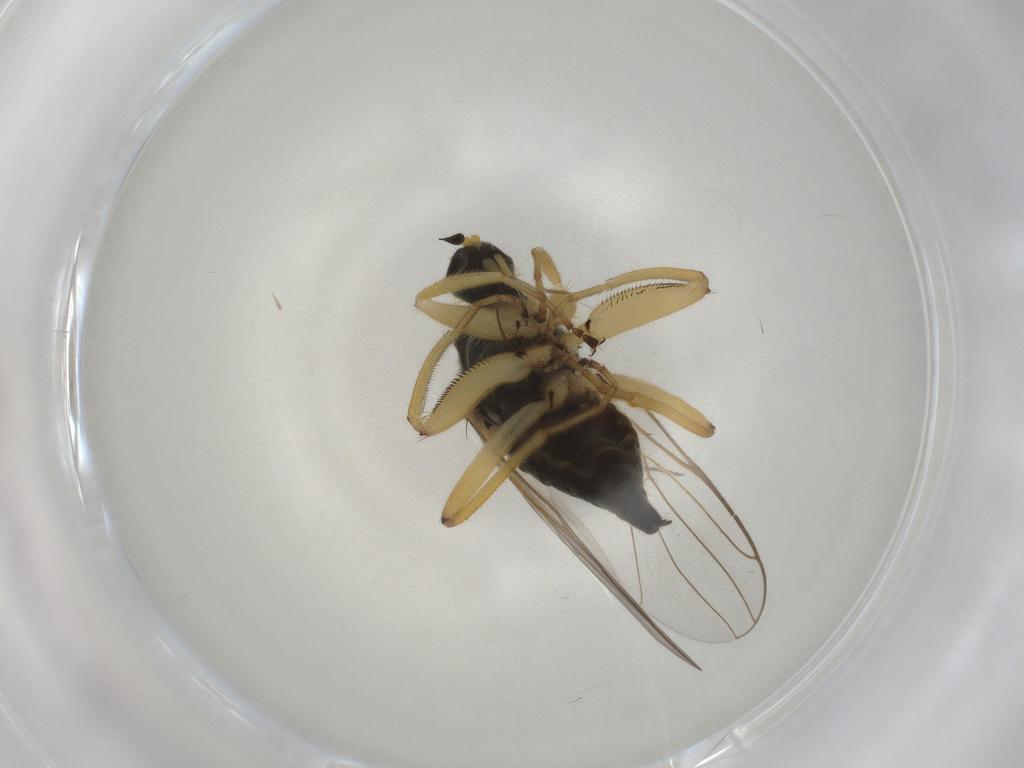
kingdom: Animalia
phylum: Arthropoda
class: Insecta
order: Diptera
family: Cecidomyiidae
